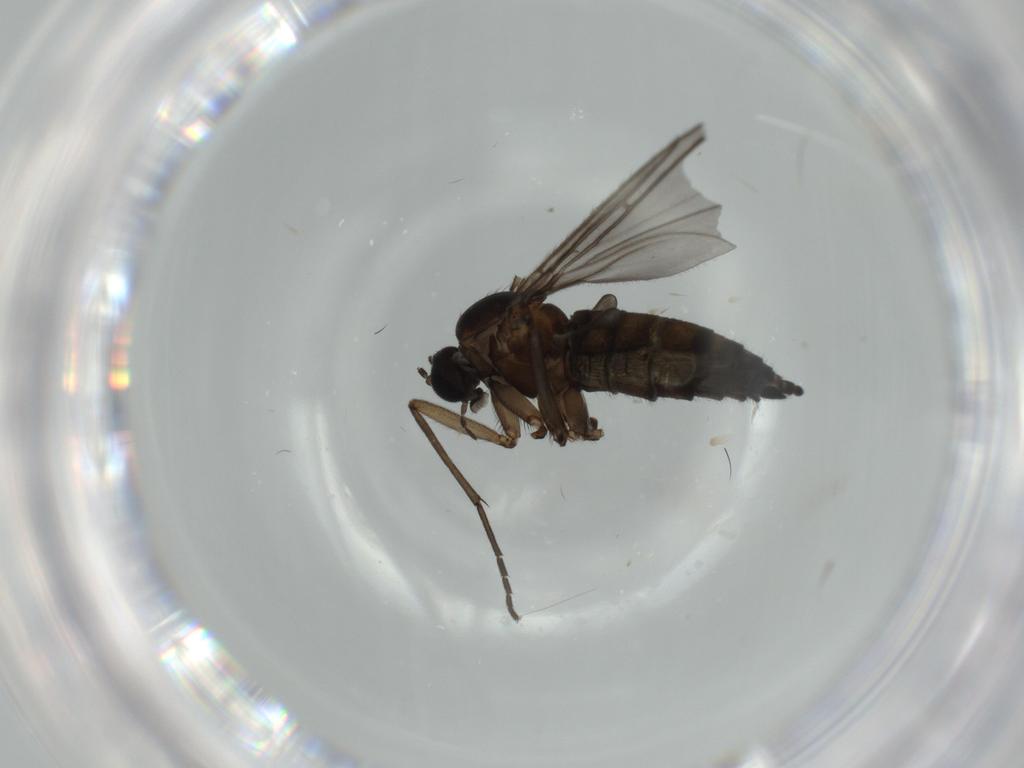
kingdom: Animalia
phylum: Arthropoda
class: Insecta
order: Diptera
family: Sciaridae
